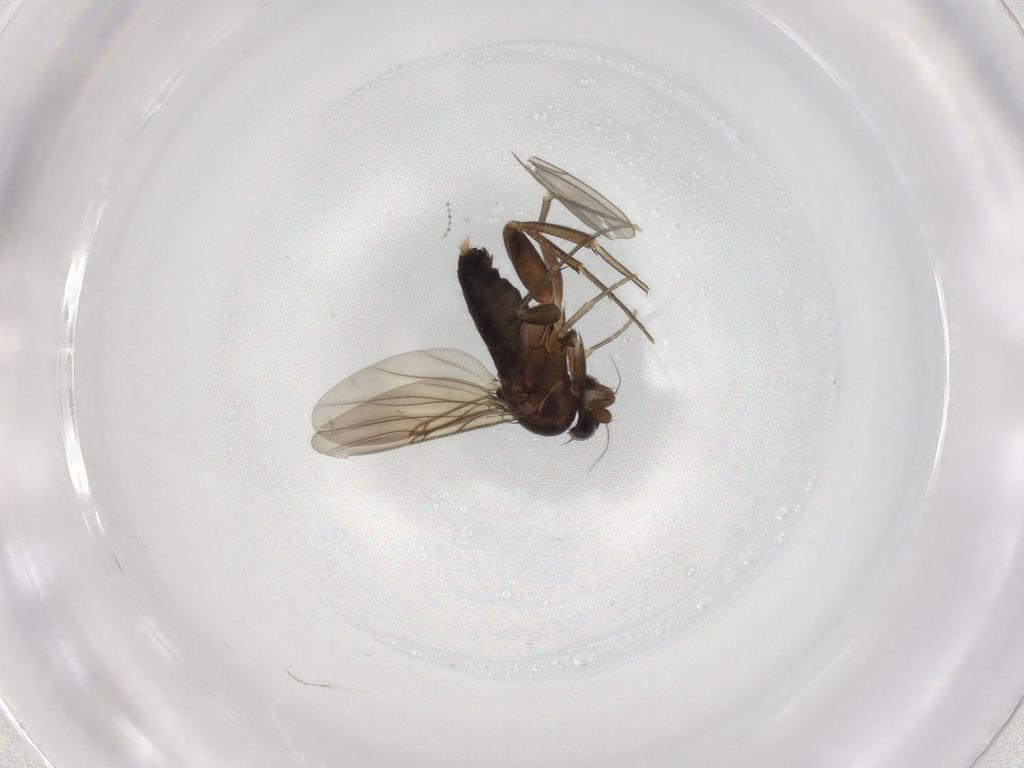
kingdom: Animalia
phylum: Arthropoda
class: Insecta
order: Diptera
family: Phoridae
